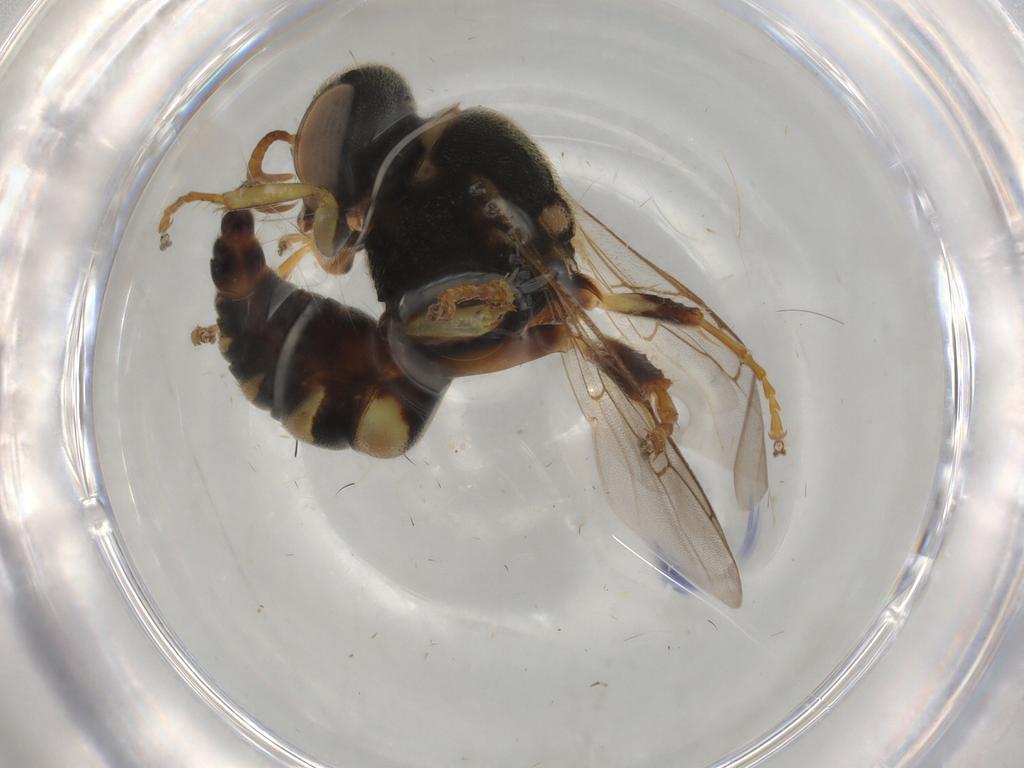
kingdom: Animalia
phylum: Arthropoda
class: Insecta
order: Hymenoptera
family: Crabronidae
